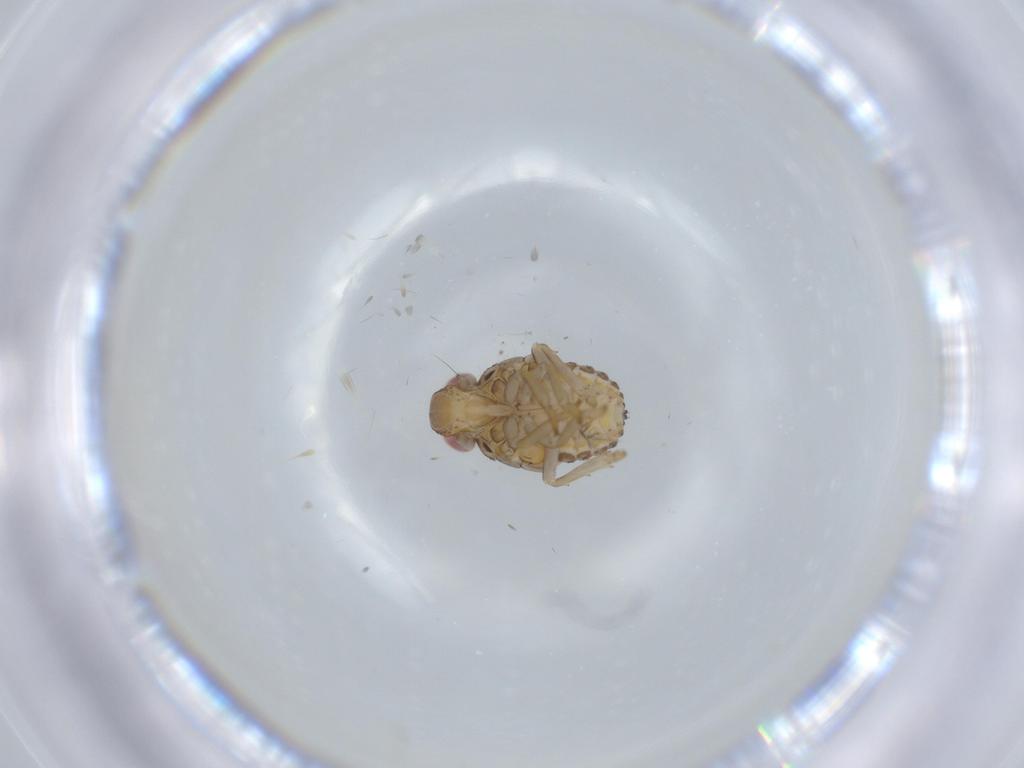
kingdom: Animalia
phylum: Arthropoda
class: Insecta
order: Hemiptera
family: Issidae
